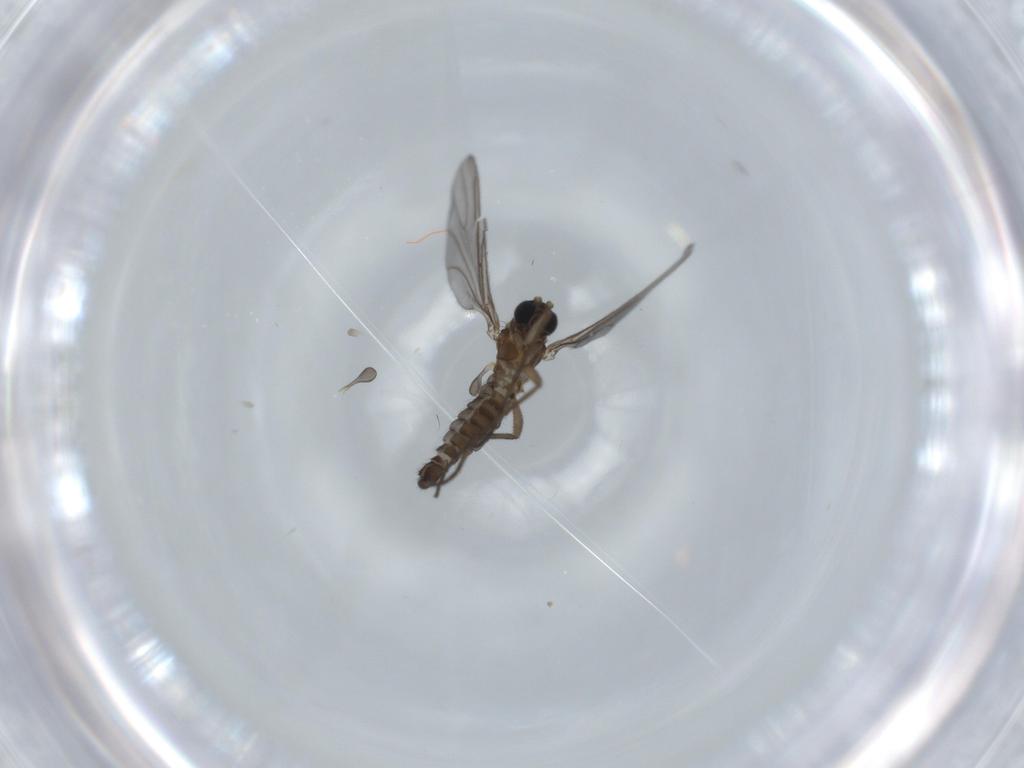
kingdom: Animalia
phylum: Arthropoda
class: Insecta
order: Diptera
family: Sciaridae
